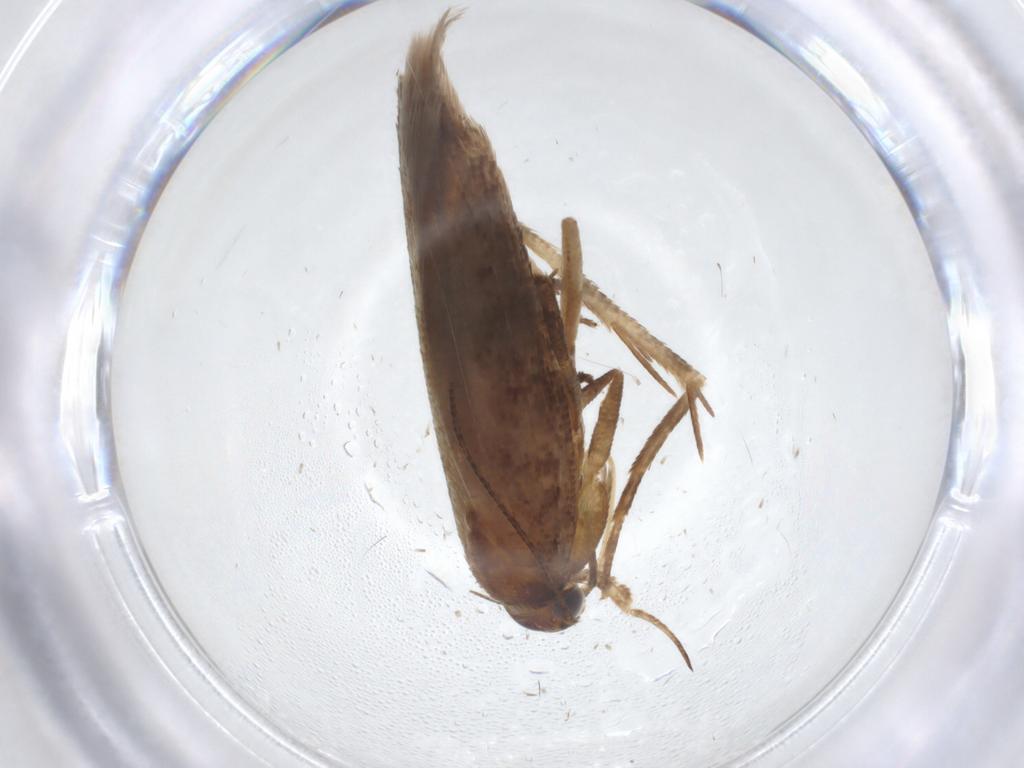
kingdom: Animalia
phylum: Arthropoda
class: Insecta
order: Lepidoptera
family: Gelechiidae
